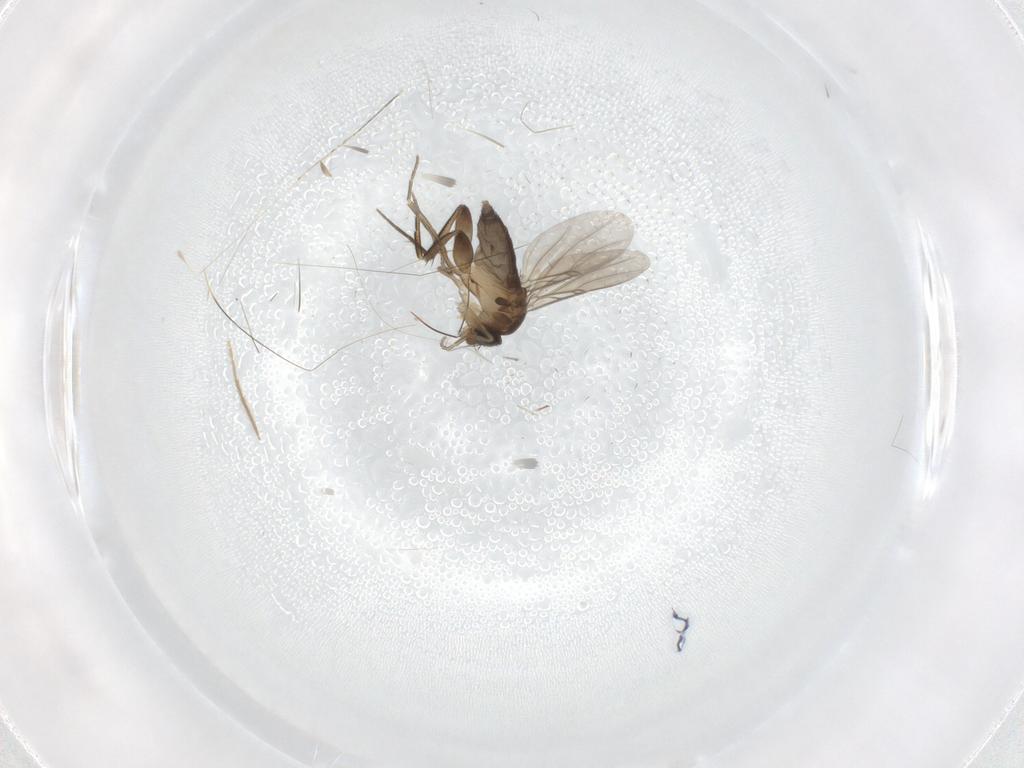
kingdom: Animalia
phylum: Arthropoda
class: Insecta
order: Diptera
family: Phoridae
